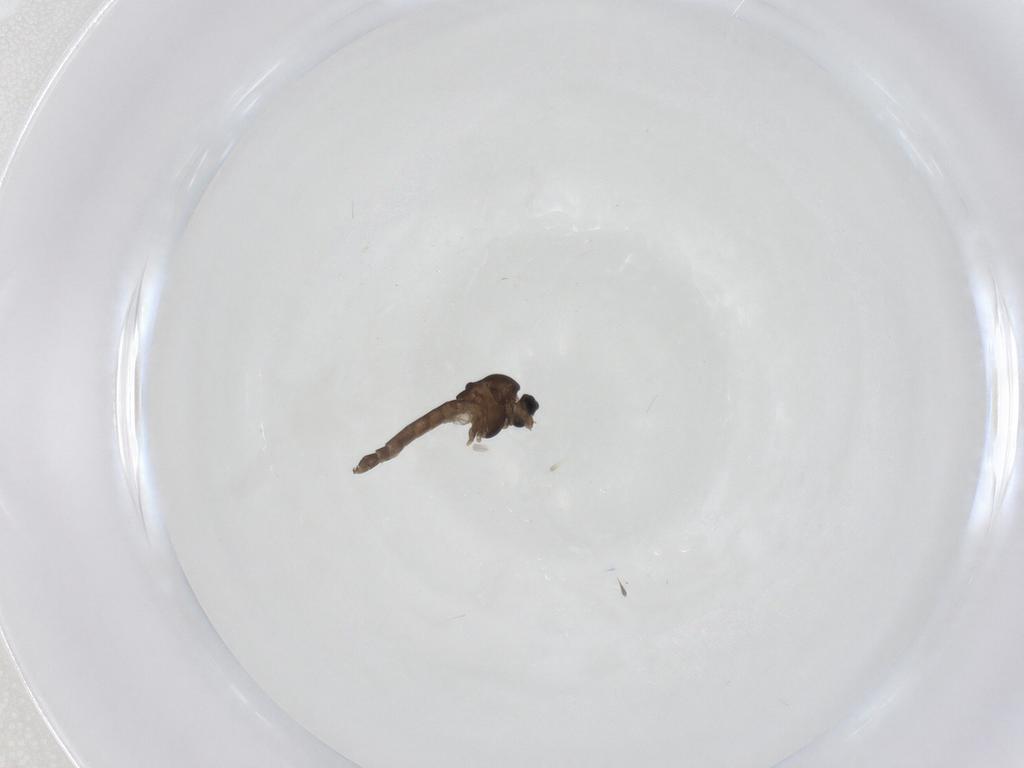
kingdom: Animalia
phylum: Arthropoda
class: Insecta
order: Diptera
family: Chironomidae
